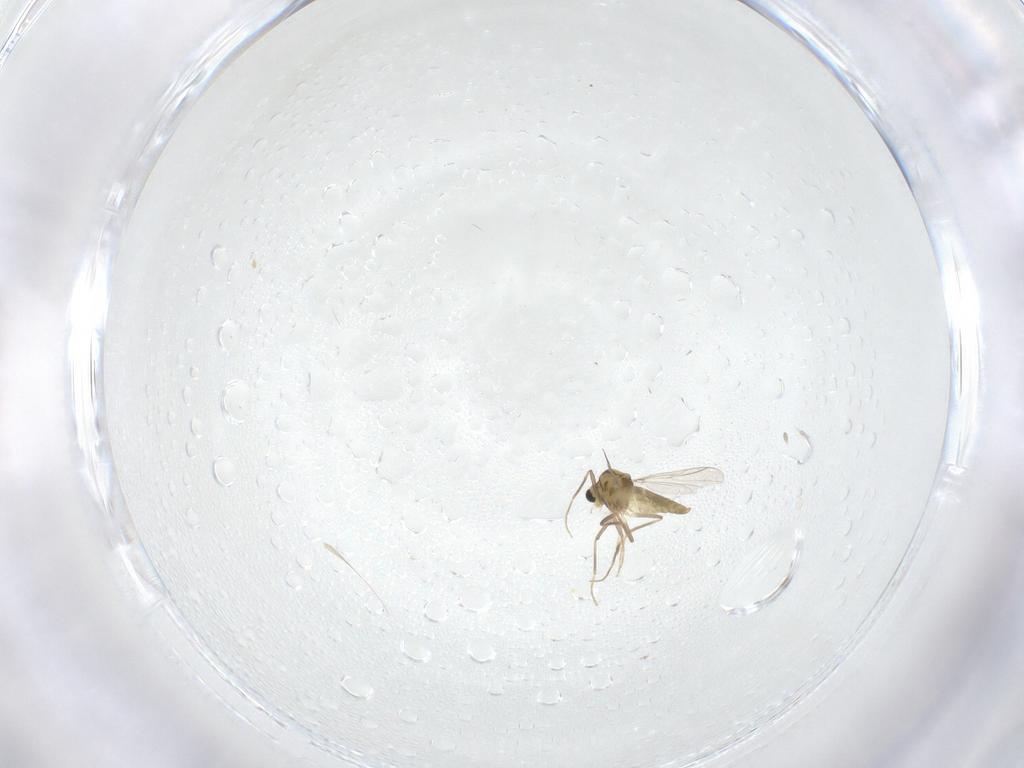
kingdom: Animalia
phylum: Arthropoda
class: Insecta
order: Diptera
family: Chironomidae
